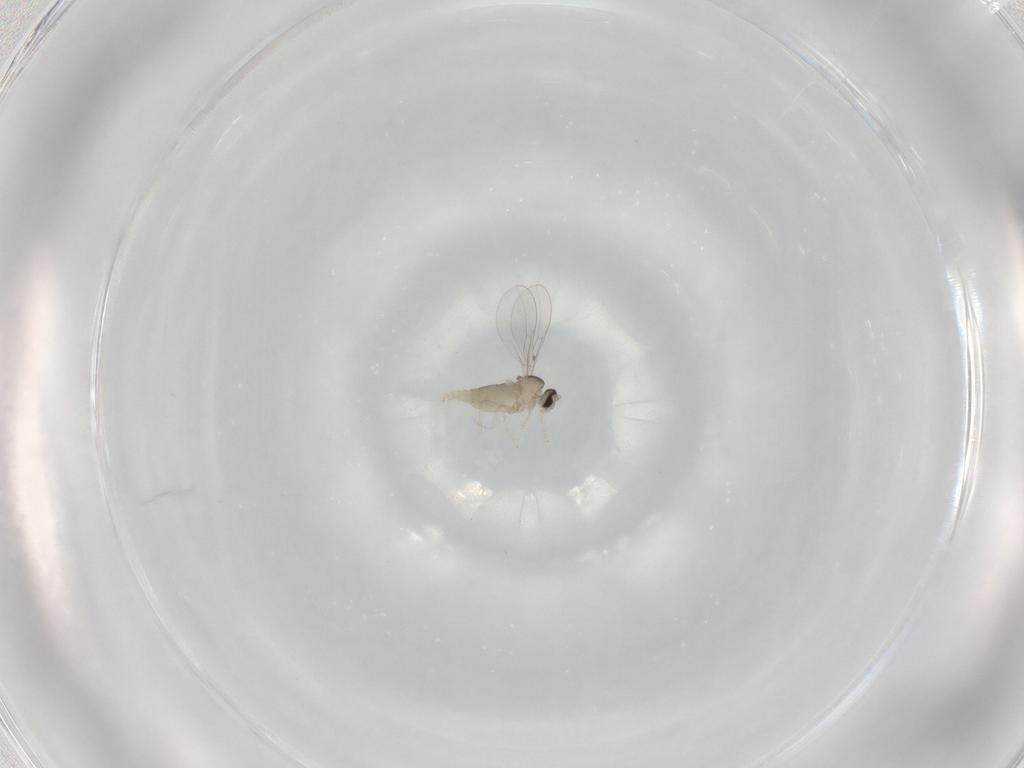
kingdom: Animalia
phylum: Arthropoda
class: Insecta
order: Diptera
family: Cecidomyiidae
